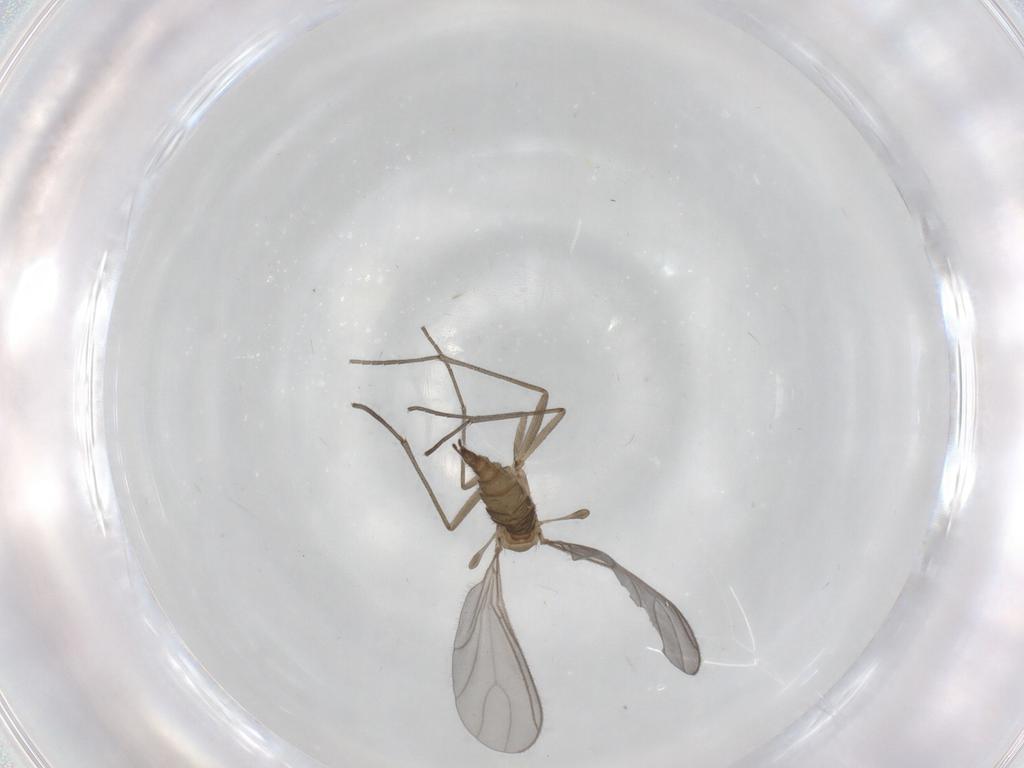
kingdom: Animalia
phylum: Arthropoda
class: Insecta
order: Diptera
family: Sciaridae
